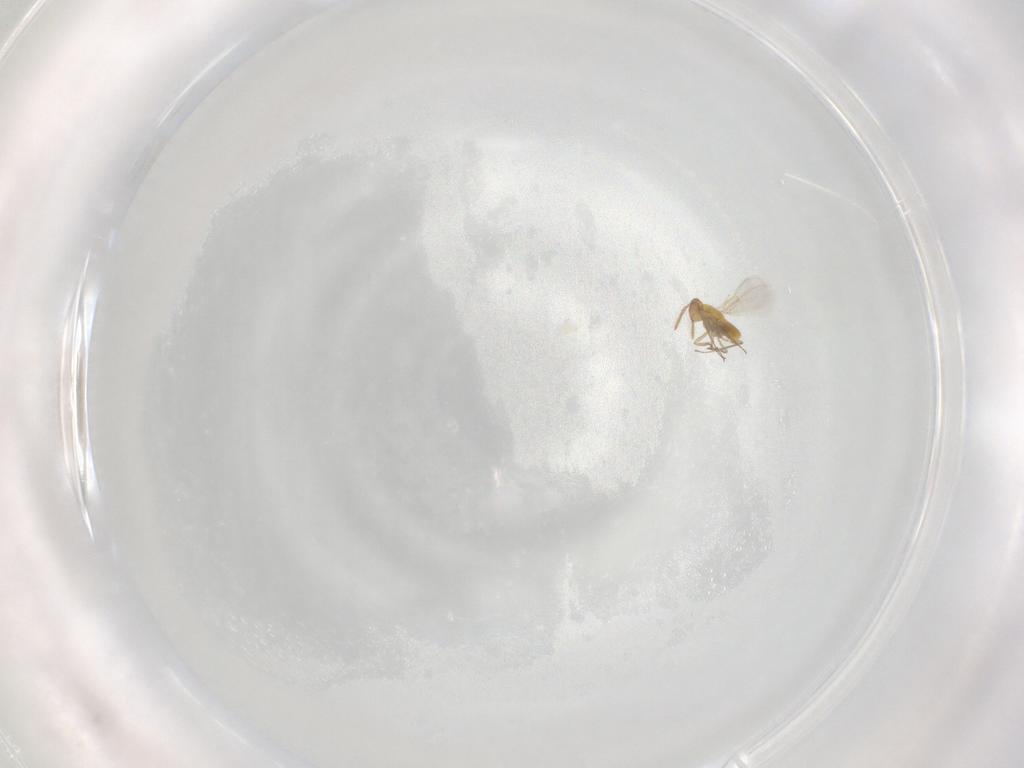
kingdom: Animalia
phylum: Arthropoda
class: Insecta
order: Hymenoptera
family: Aphelinidae
